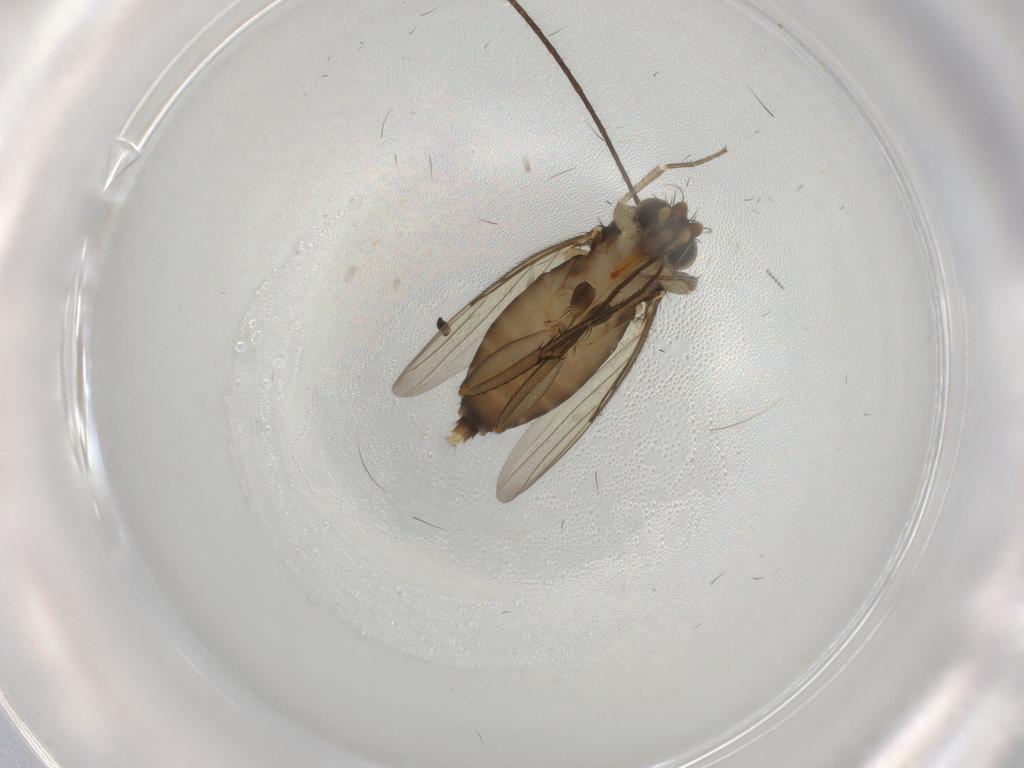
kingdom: Animalia
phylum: Arthropoda
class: Insecta
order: Diptera
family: Phoridae
